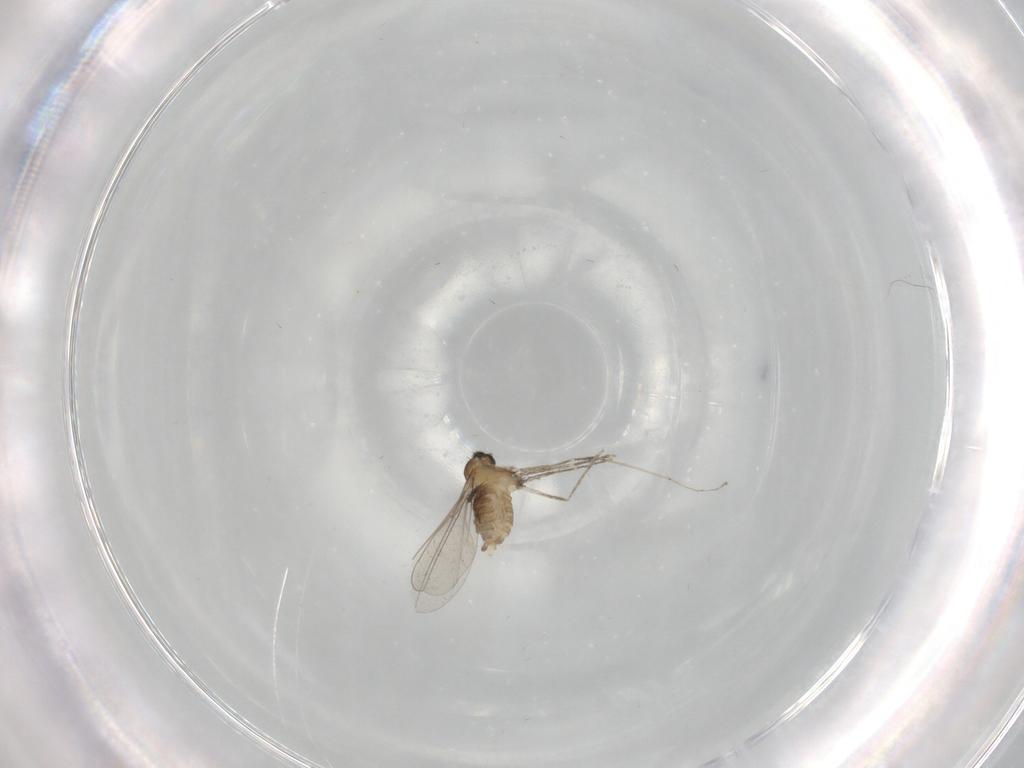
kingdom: Animalia
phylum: Arthropoda
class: Insecta
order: Diptera
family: Cecidomyiidae
